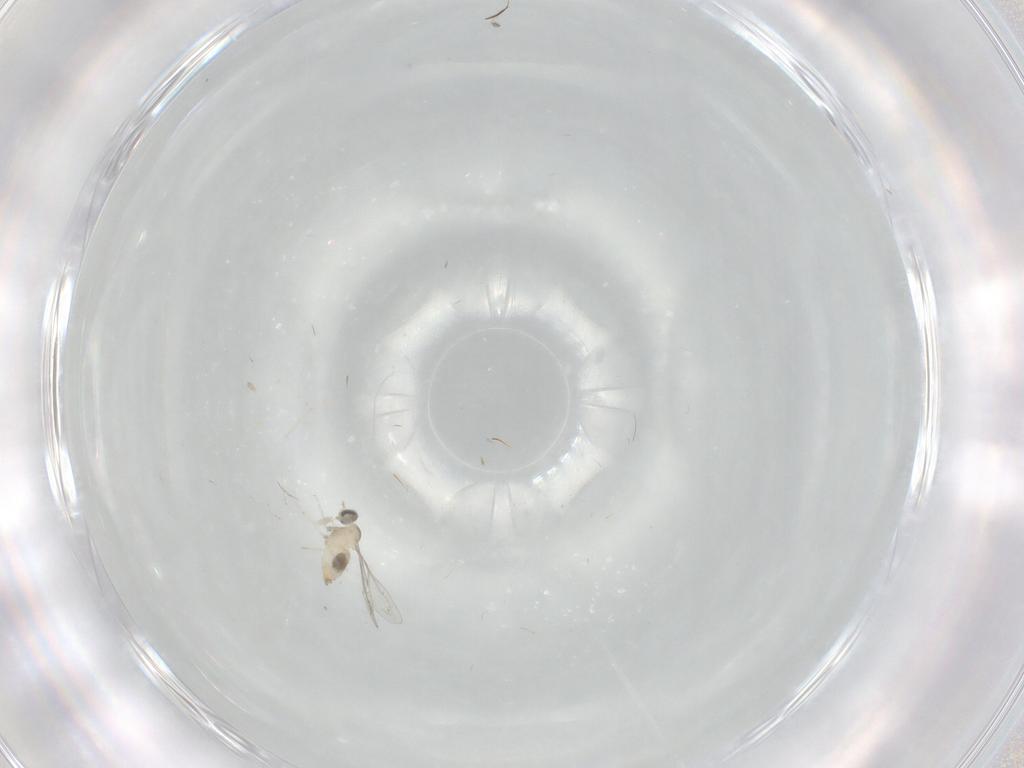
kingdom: Animalia
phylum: Arthropoda
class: Insecta
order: Diptera
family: Cecidomyiidae
